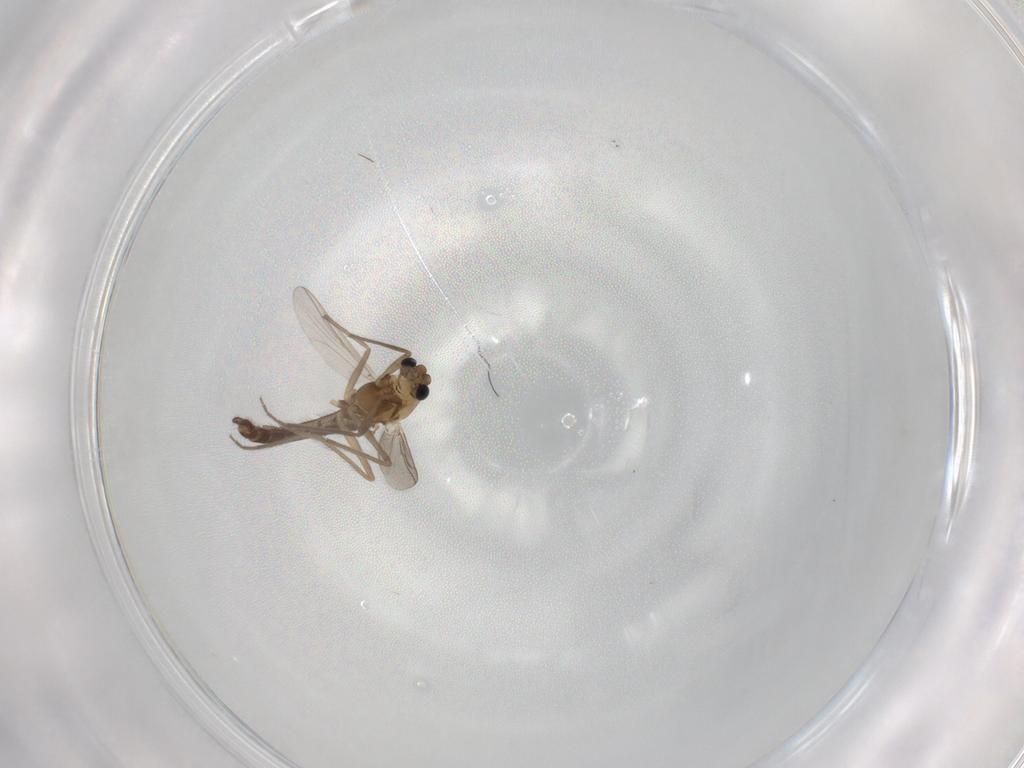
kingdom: Animalia
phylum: Arthropoda
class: Insecta
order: Diptera
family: Chironomidae
